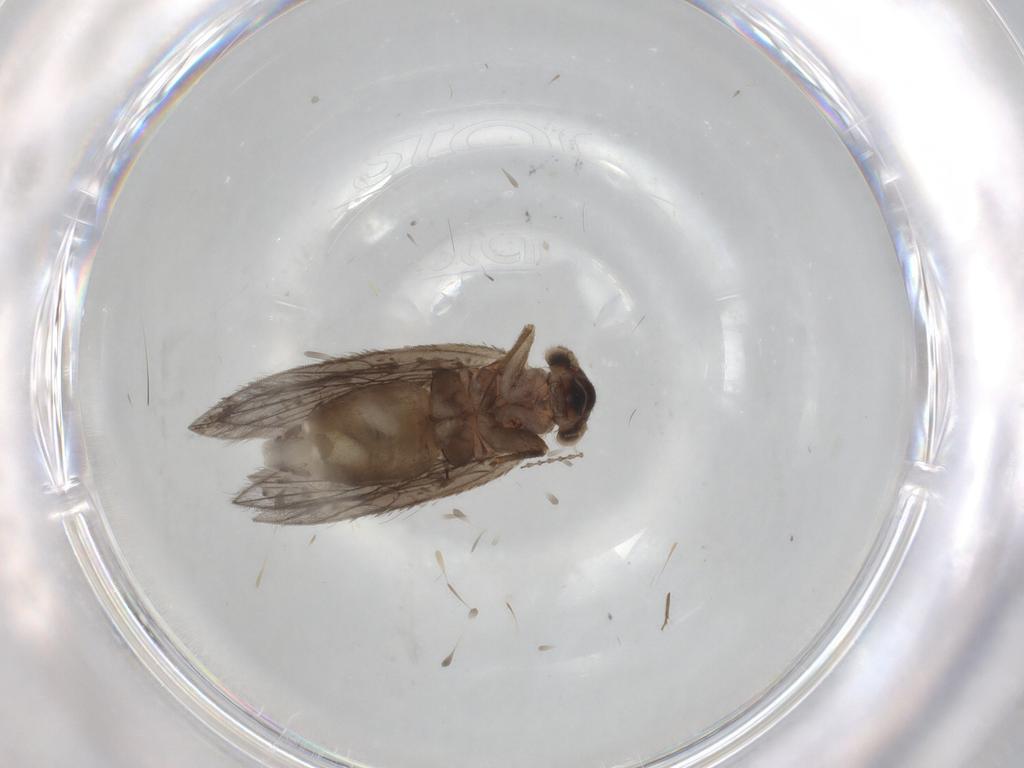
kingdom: Animalia
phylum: Arthropoda
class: Insecta
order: Psocodea
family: Lepidopsocidae
